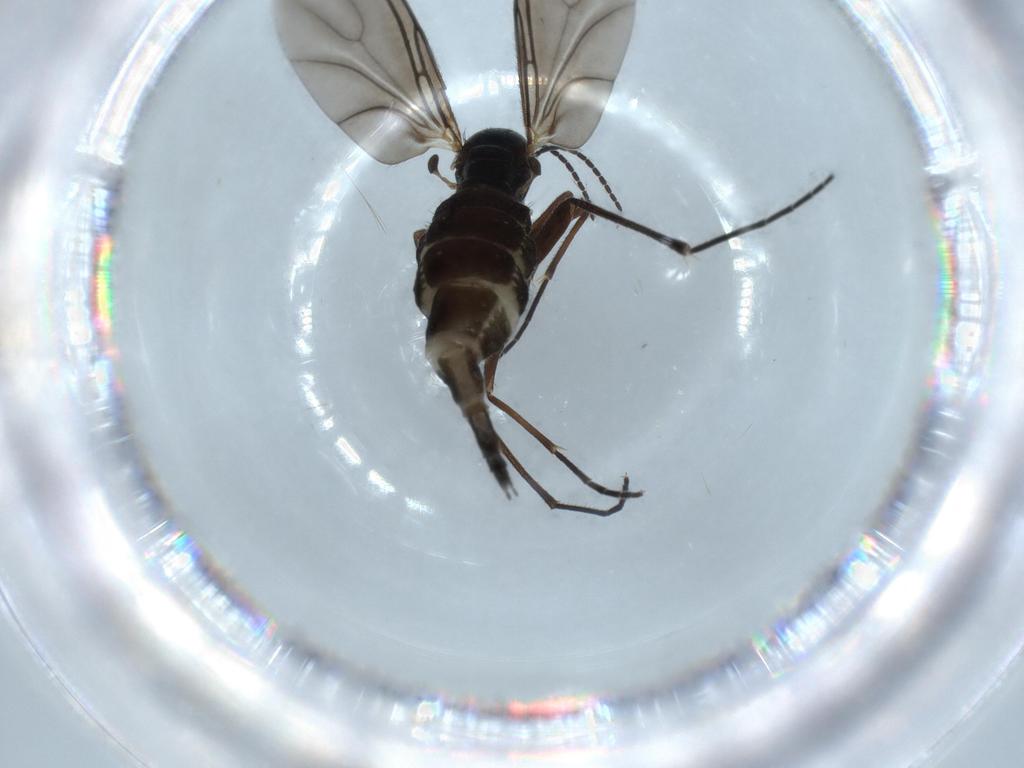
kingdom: Animalia
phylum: Arthropoda
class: Insecta
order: Diptera
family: Sciaridae
